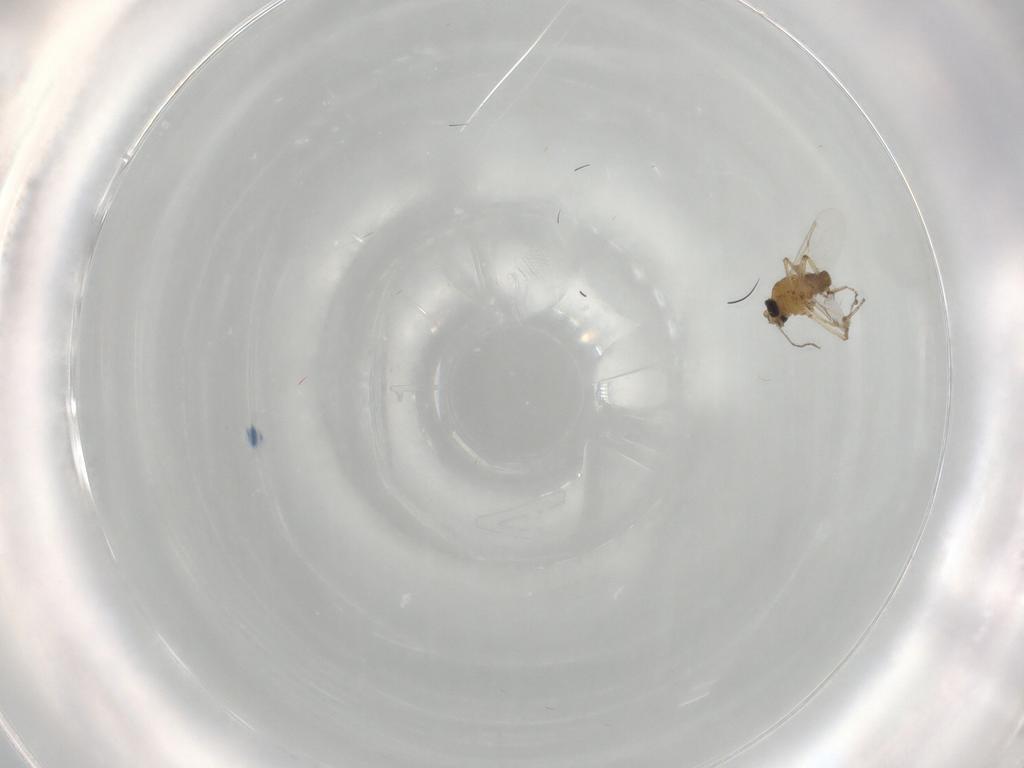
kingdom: Animalia
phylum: Arthropoda
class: Insecta
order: Diptera
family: Ceratopogonidae
